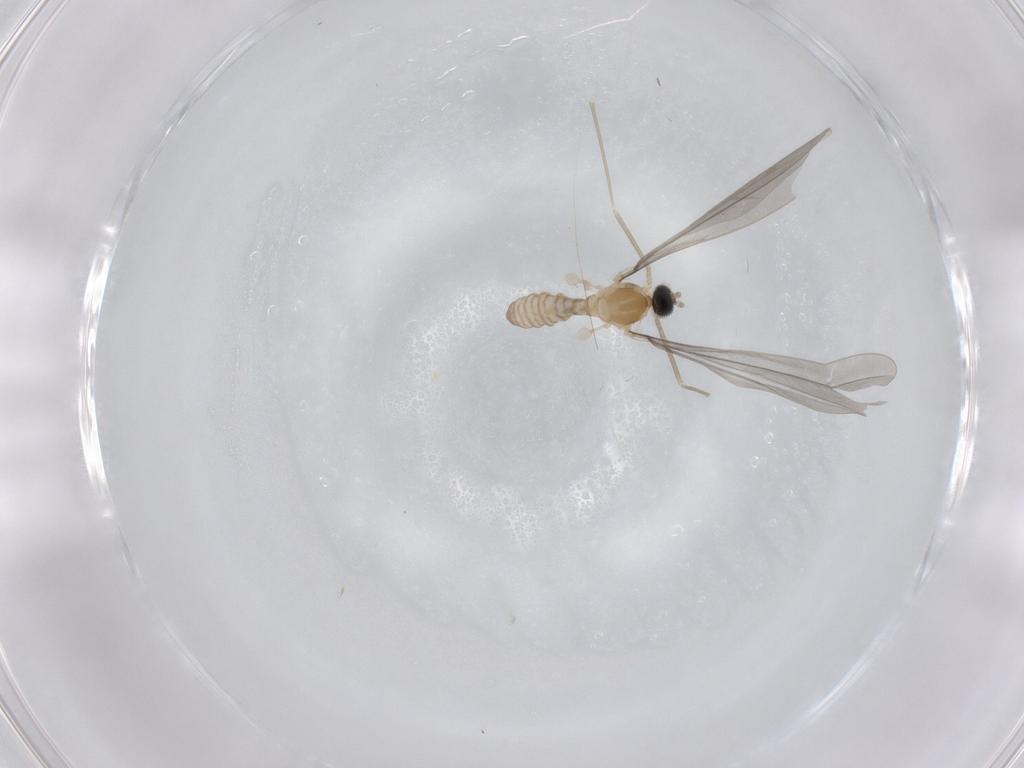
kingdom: Animalia
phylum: Arthropoda
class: Insecta
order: Diptera
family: Cecidomyiidae
